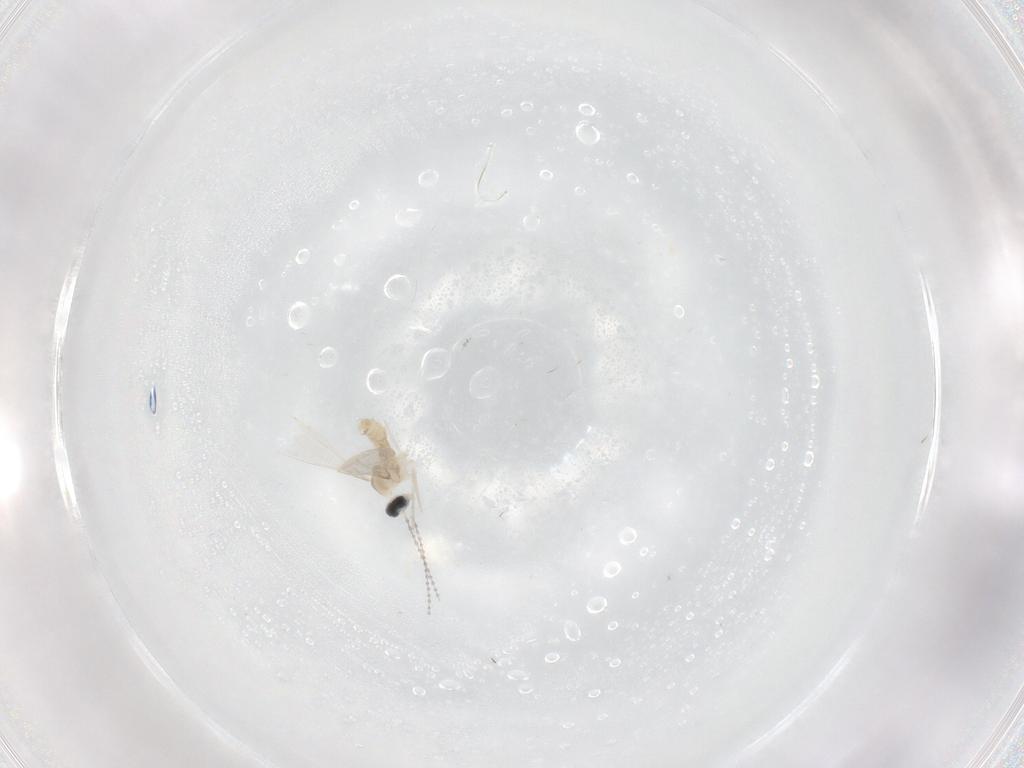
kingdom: Animalia
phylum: Arthropoda
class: Insecta
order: Diptera
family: Cecidomyiidae
